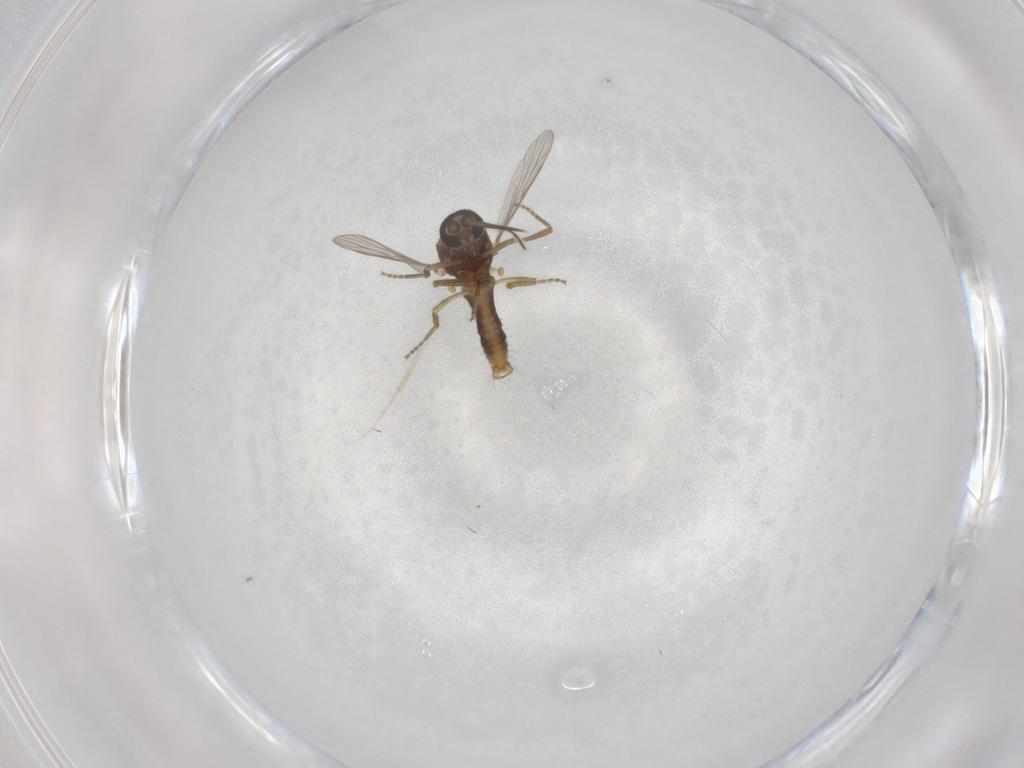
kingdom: Animalia
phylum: Arthropoda
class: Insecta
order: Diptera
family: Ceratopogonidae
